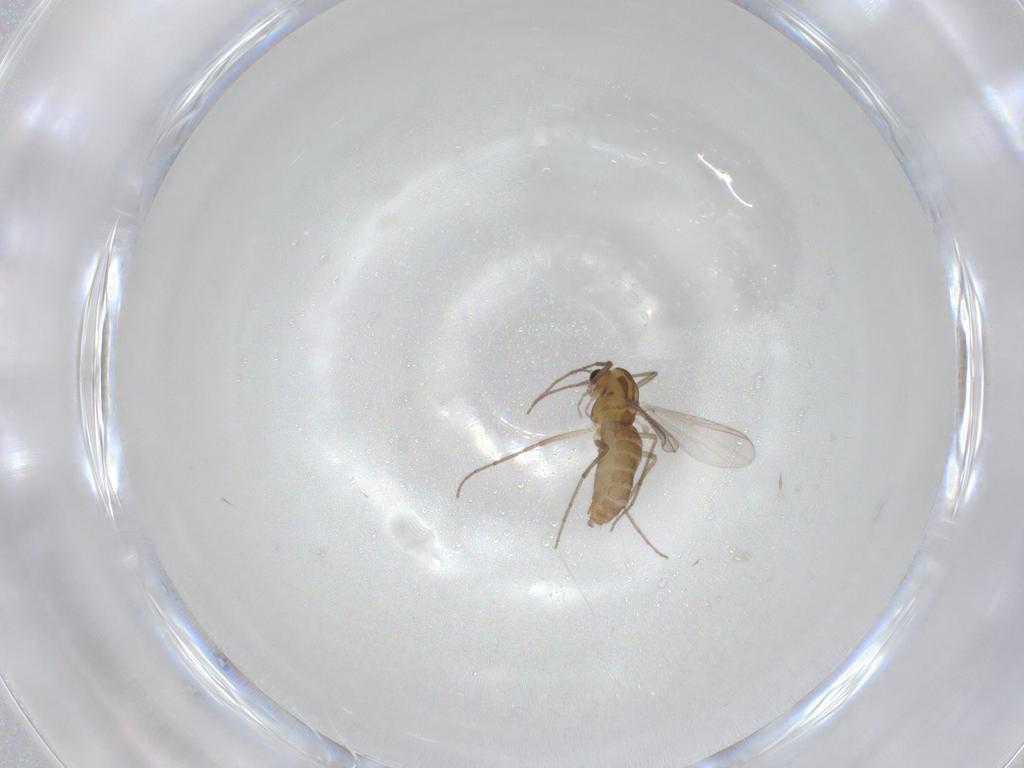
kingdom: Animalia
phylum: Arthropoda
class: Insecta
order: Diptera
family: Chironomidae
